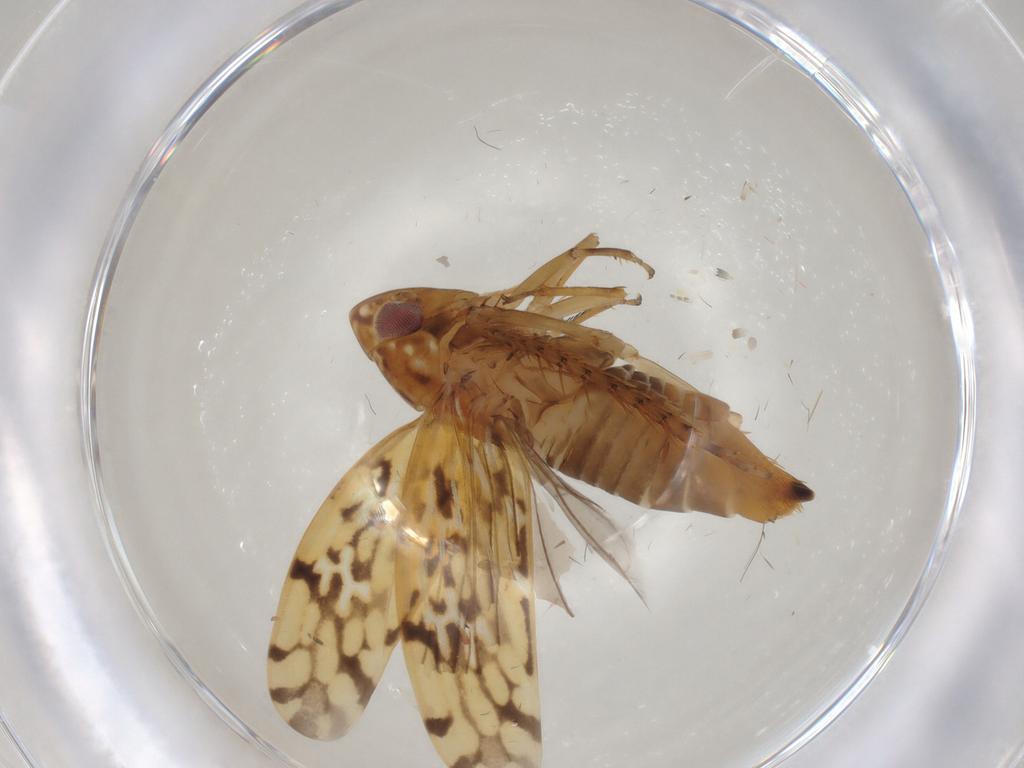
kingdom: Animalia
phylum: Arthropoda
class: Insecta
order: Hemiptera
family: Cicadellidae
